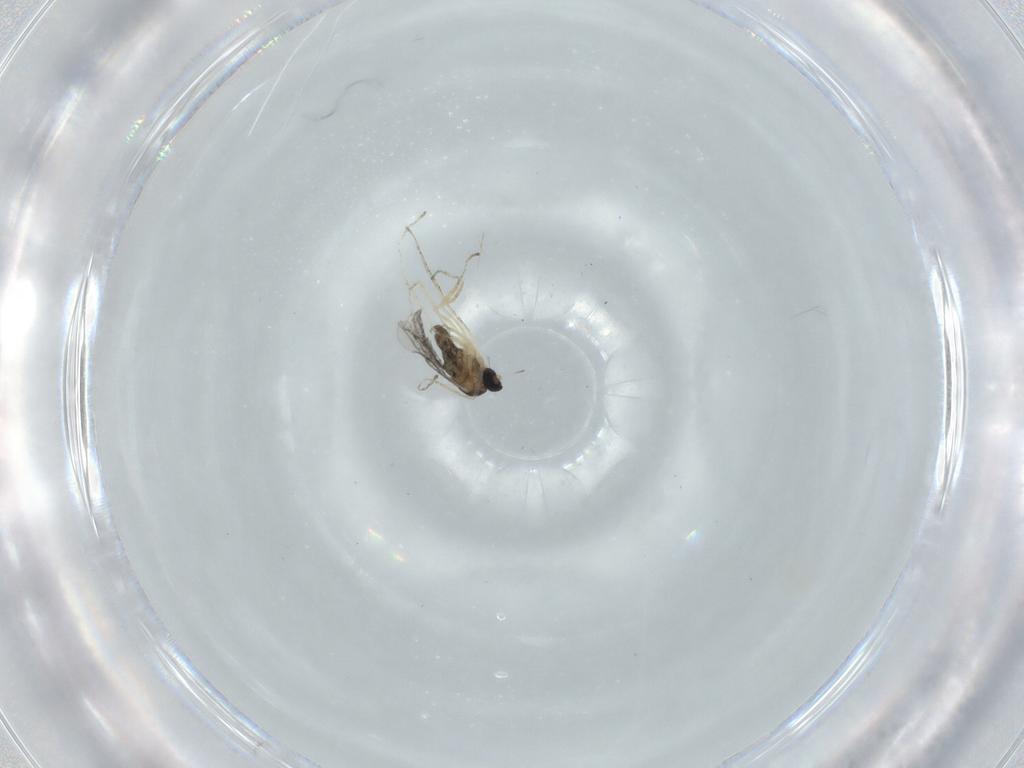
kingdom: Animalia
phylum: Arthropoda
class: Insecta
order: Diptera
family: Cecidomyiidae
